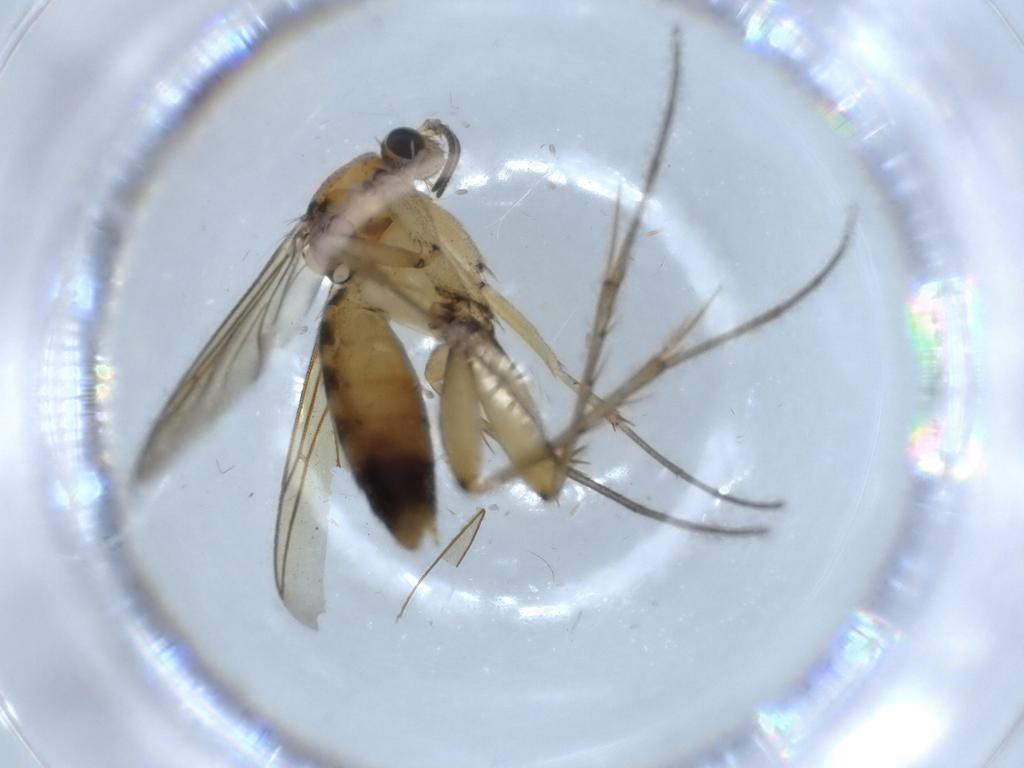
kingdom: Animalia
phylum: Arthropoda
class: Insecta
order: Diptera
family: Mycetophilidae
